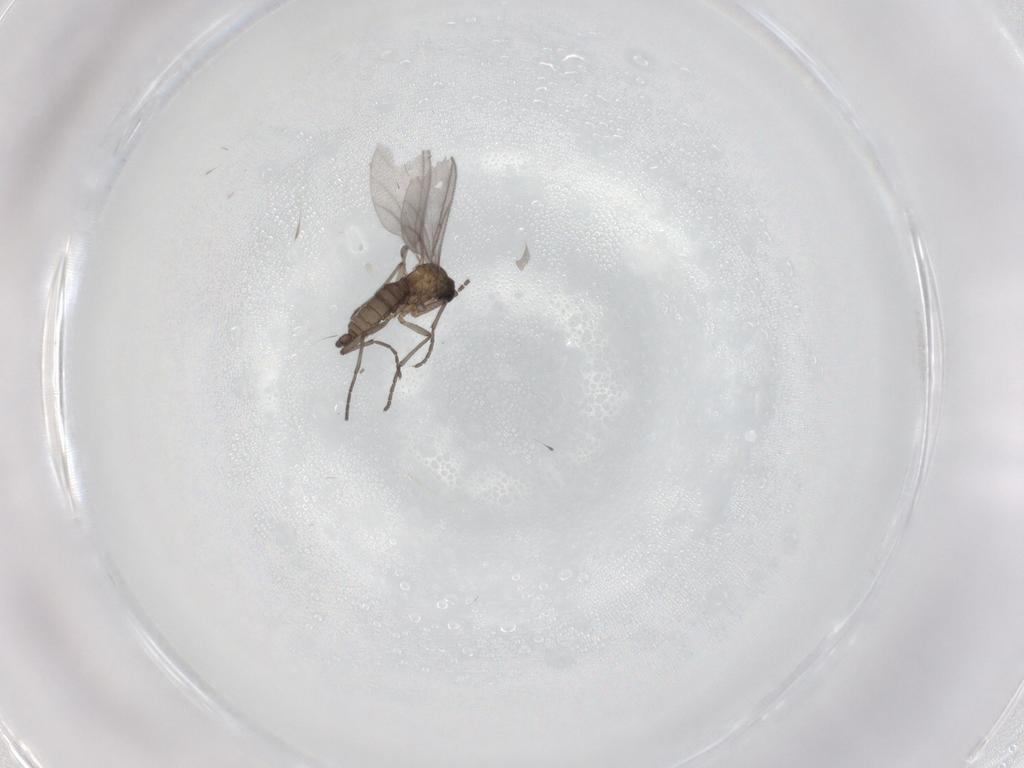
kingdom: Animalia
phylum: Arthropoda
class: Insecta
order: Diptera
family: Sciaridae
